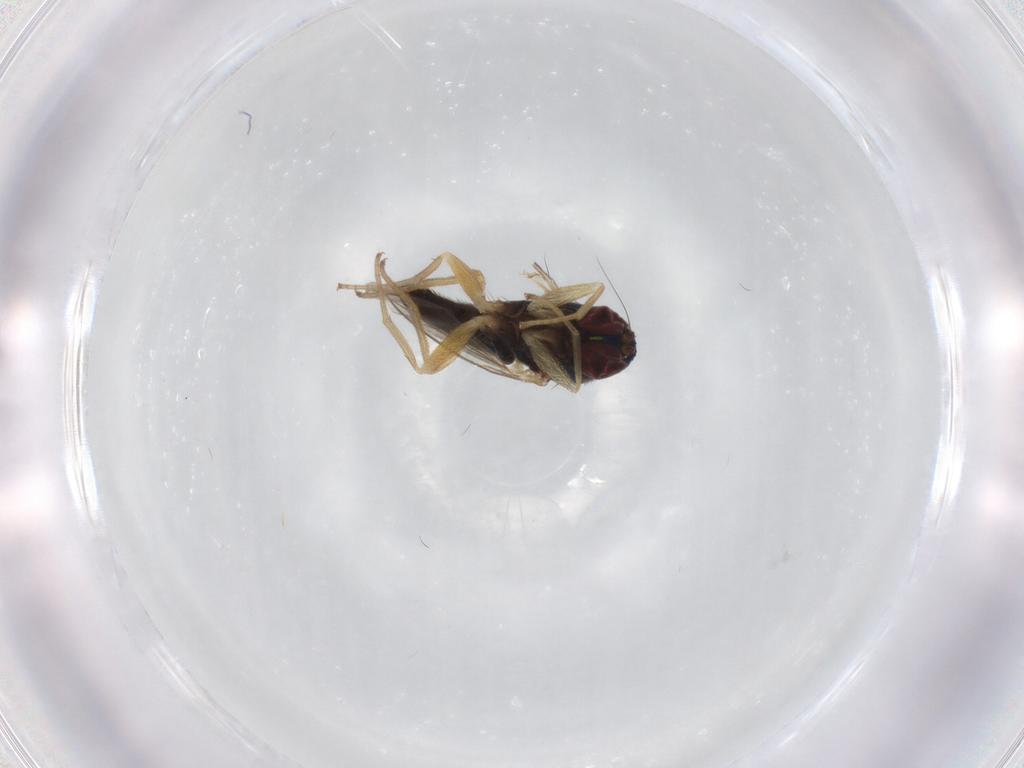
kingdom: Animalia
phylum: Arthropoda
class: Insecta
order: Diptera
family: Dolichopodidae
